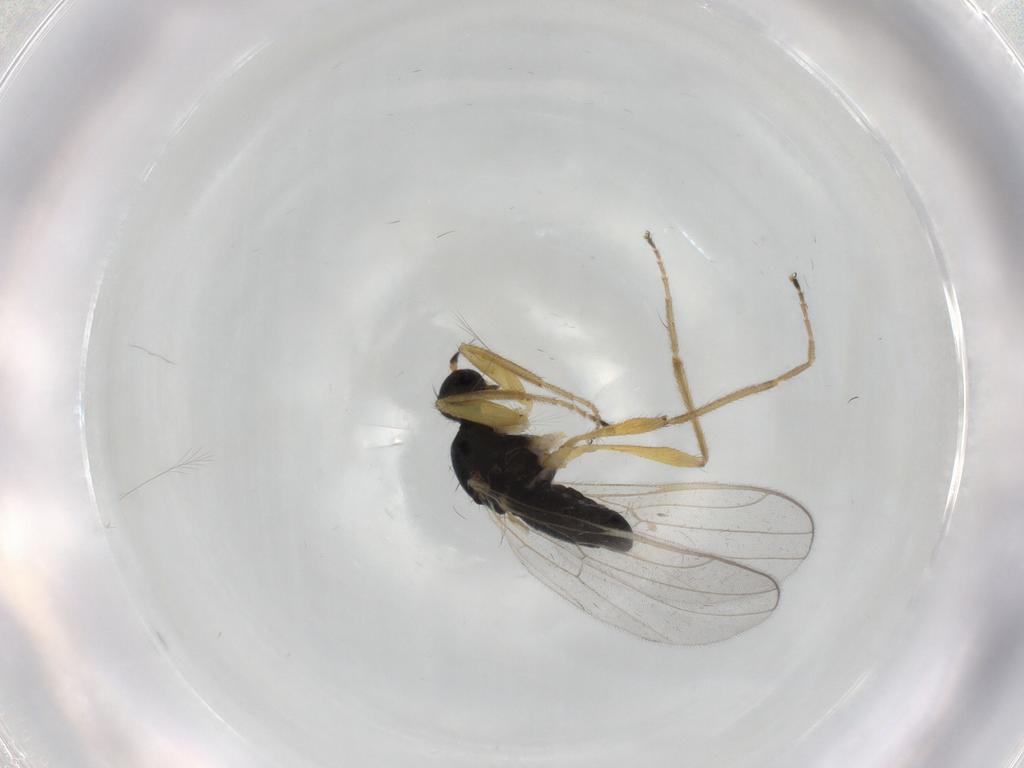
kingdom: Animalia
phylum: Arthropoda
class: Insecta
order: Diptera
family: Hybotidae
